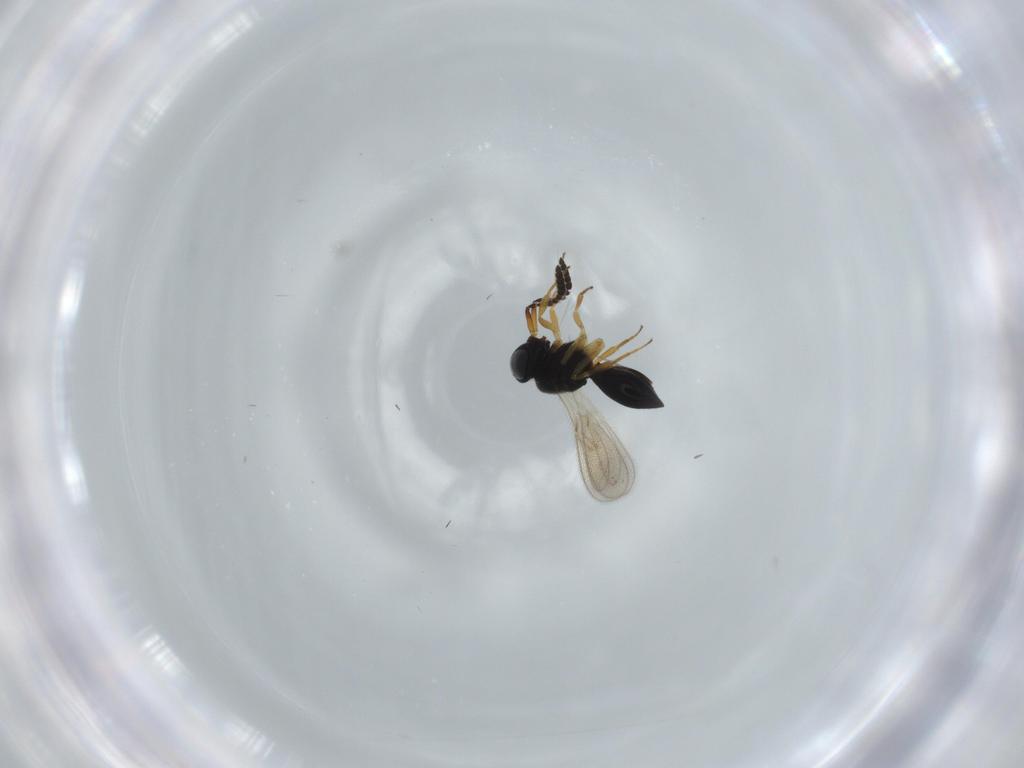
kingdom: Animalia
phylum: Arthropoda
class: Insecta
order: Hymenoptera
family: Scelionidae
